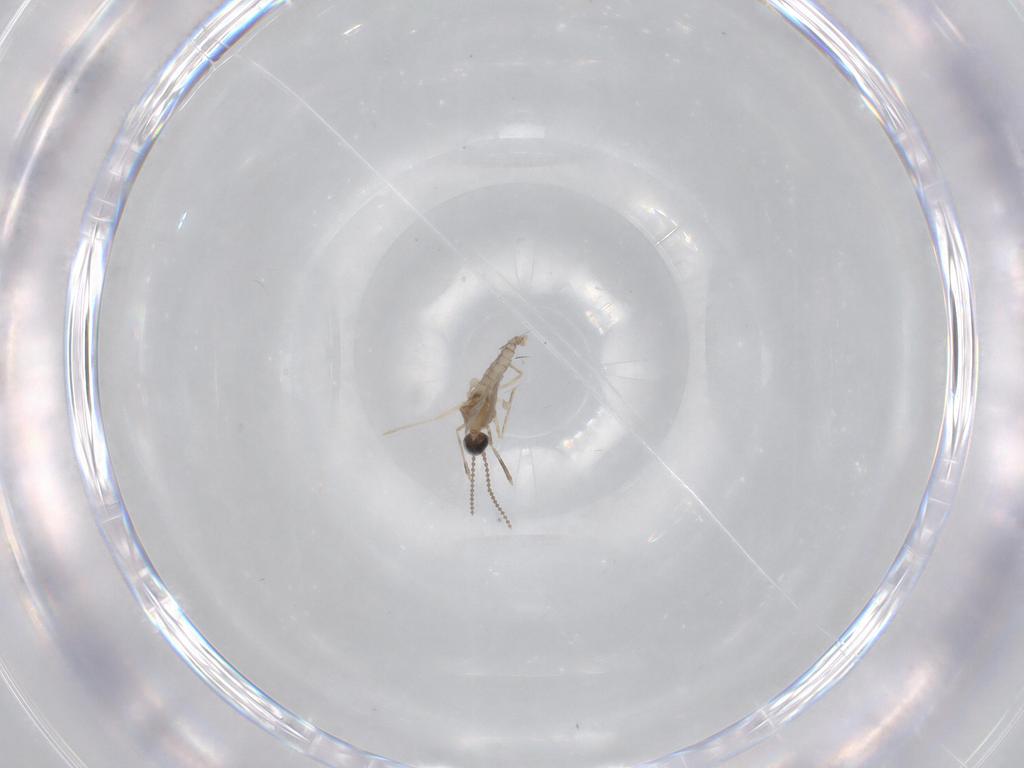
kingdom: Animalia
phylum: Arthropoda
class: Insecta
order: Diptera
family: Cecidomyiidae
